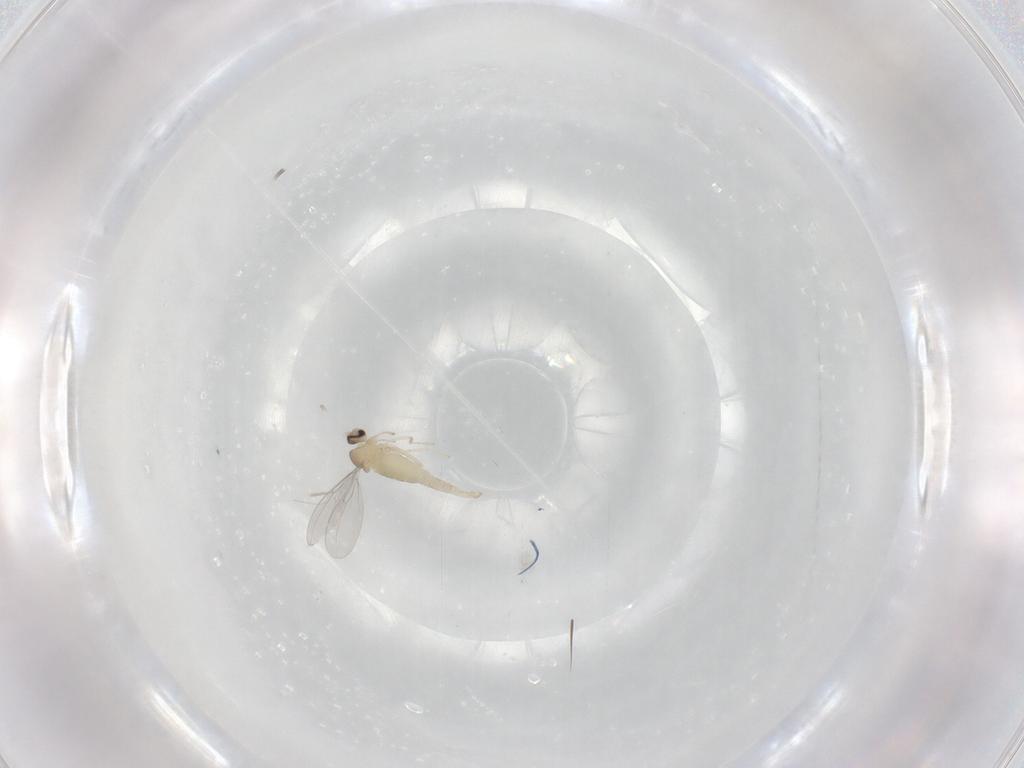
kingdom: Animalia
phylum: Arthropoda
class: Insecta
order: Diptera
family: Cecidomyiidae
